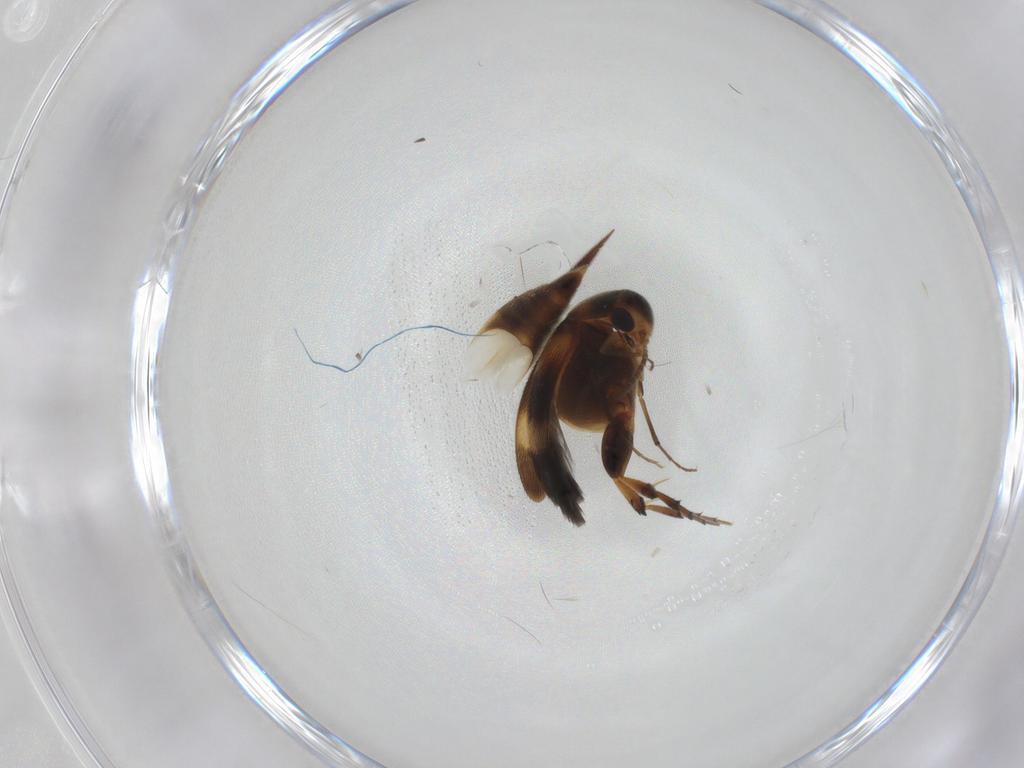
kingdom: Animalia
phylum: Arthropoda
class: Insecta
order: Coleoptera
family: Mordellidae
